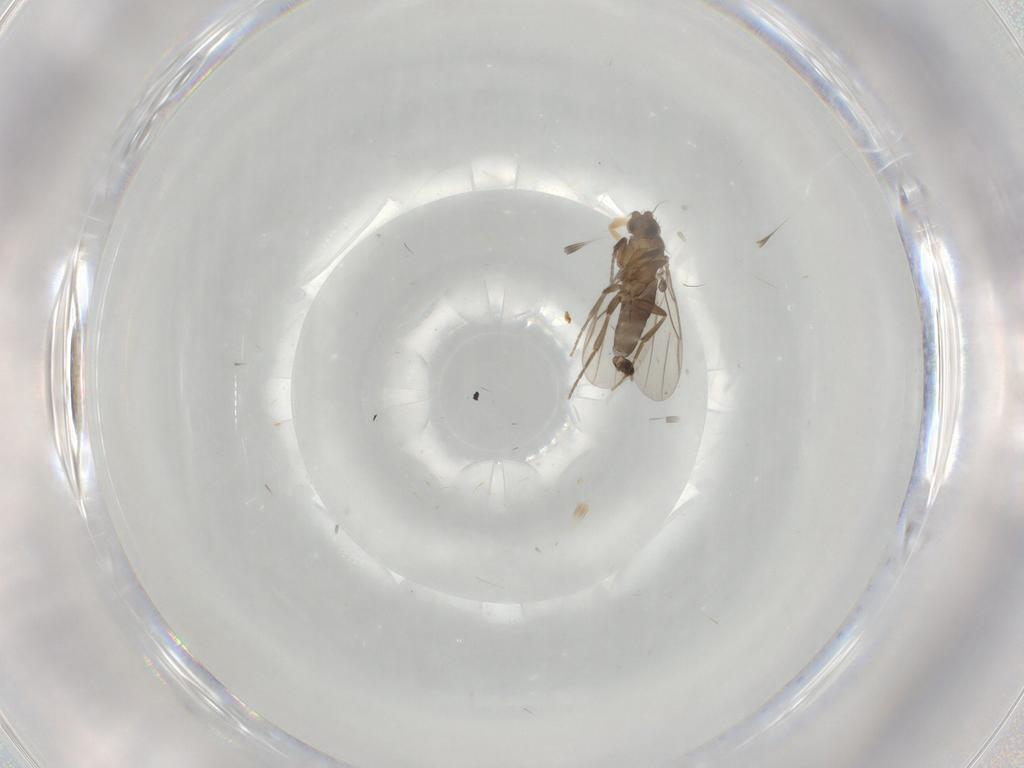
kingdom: Animalia
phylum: Arthropoda
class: Insecta
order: Diptera
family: Chironomidae
